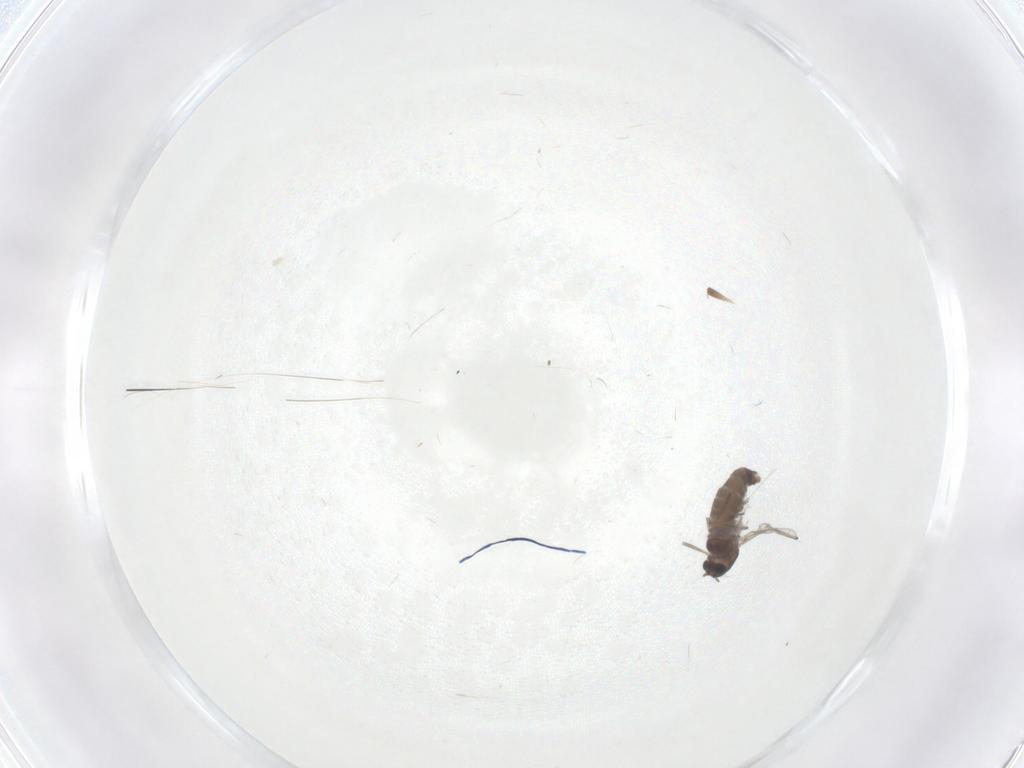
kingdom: Animalia
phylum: Arthropoda
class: Insecta
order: Diptera
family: Chironomidae
